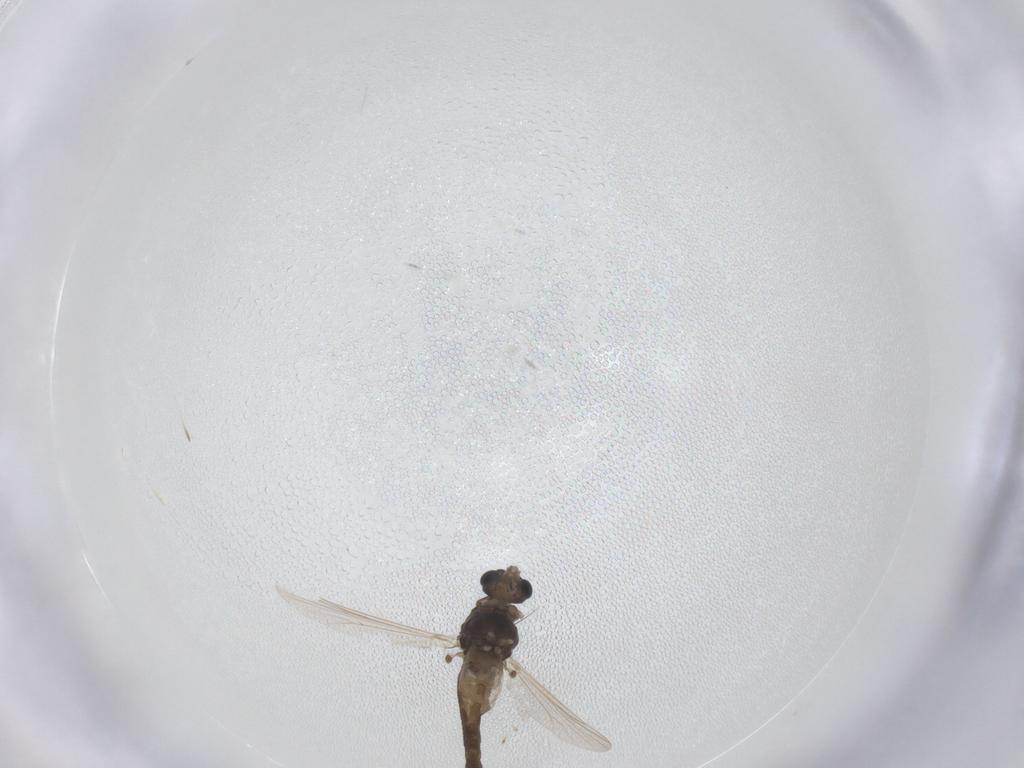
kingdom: Animalia
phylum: Arthropoda
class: Insecta
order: Diptera
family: Chironomidae
